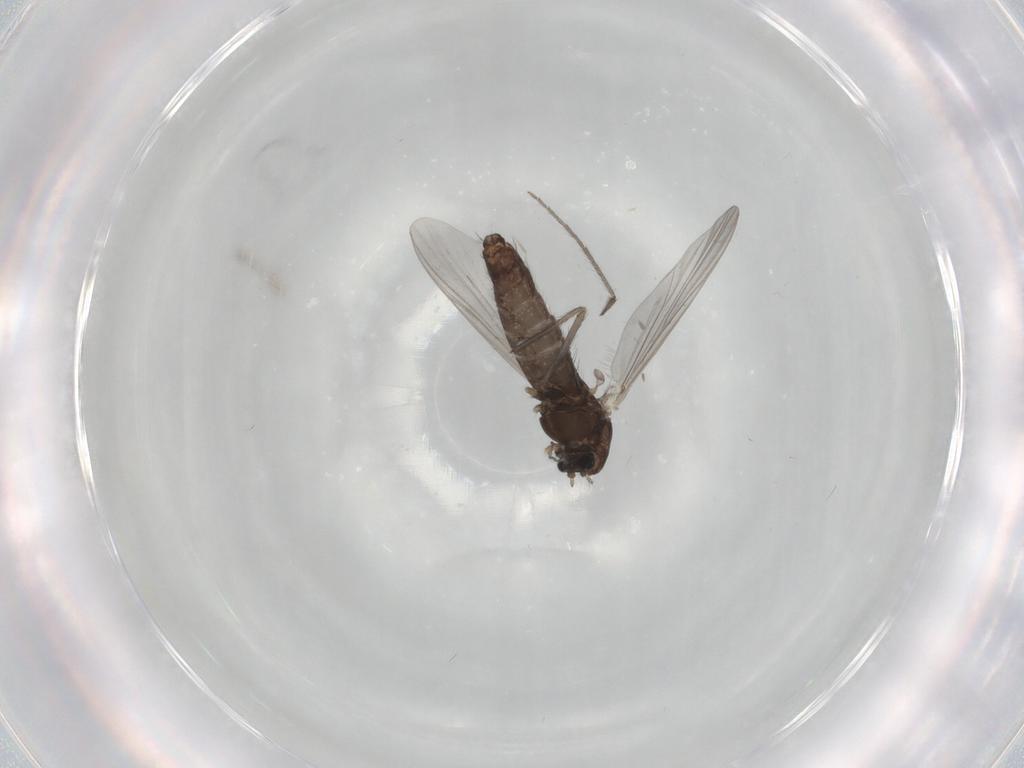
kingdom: Animalia
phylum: Arthropoda
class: Insecta
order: Diptera
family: Chironomidae
